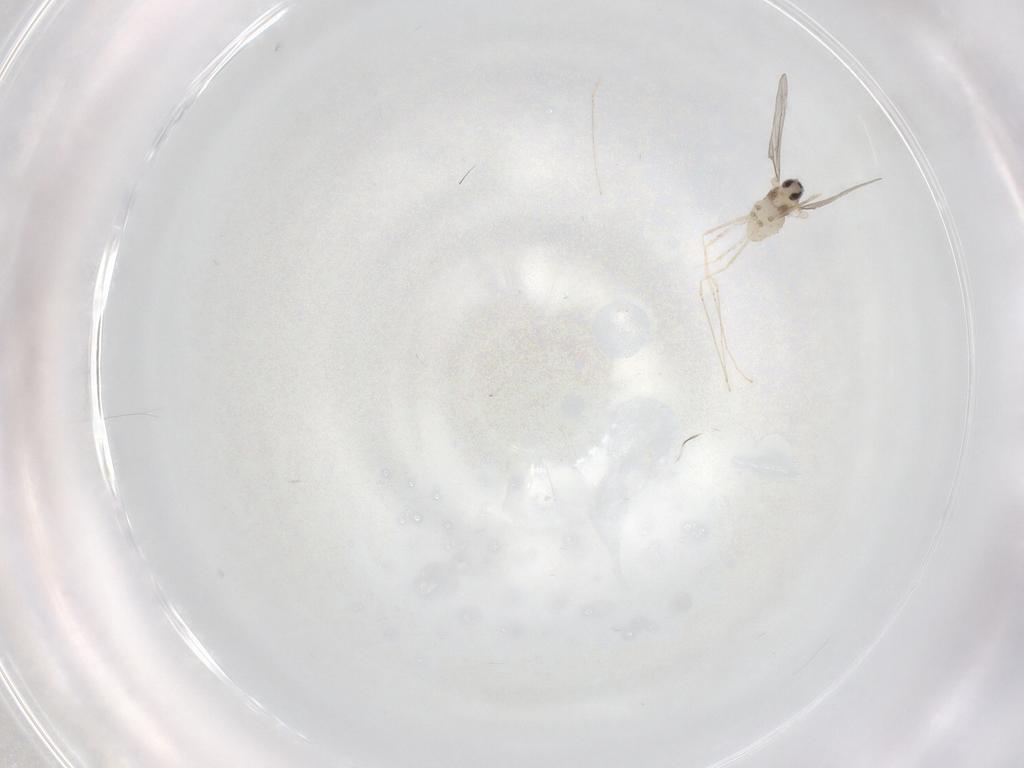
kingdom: Animalia
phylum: Arthropoda
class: Insecta
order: Diptera
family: Cecidomyiidae
